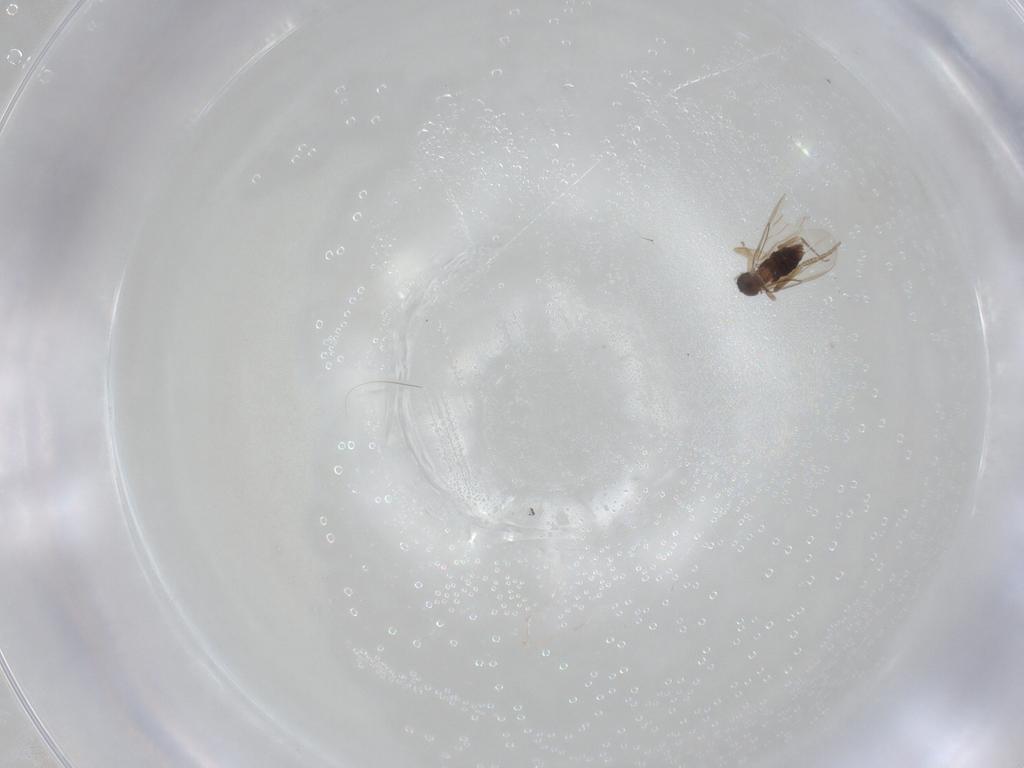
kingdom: Animalia
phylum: Arthropoda
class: Insecta
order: Diptera
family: Phoridae
